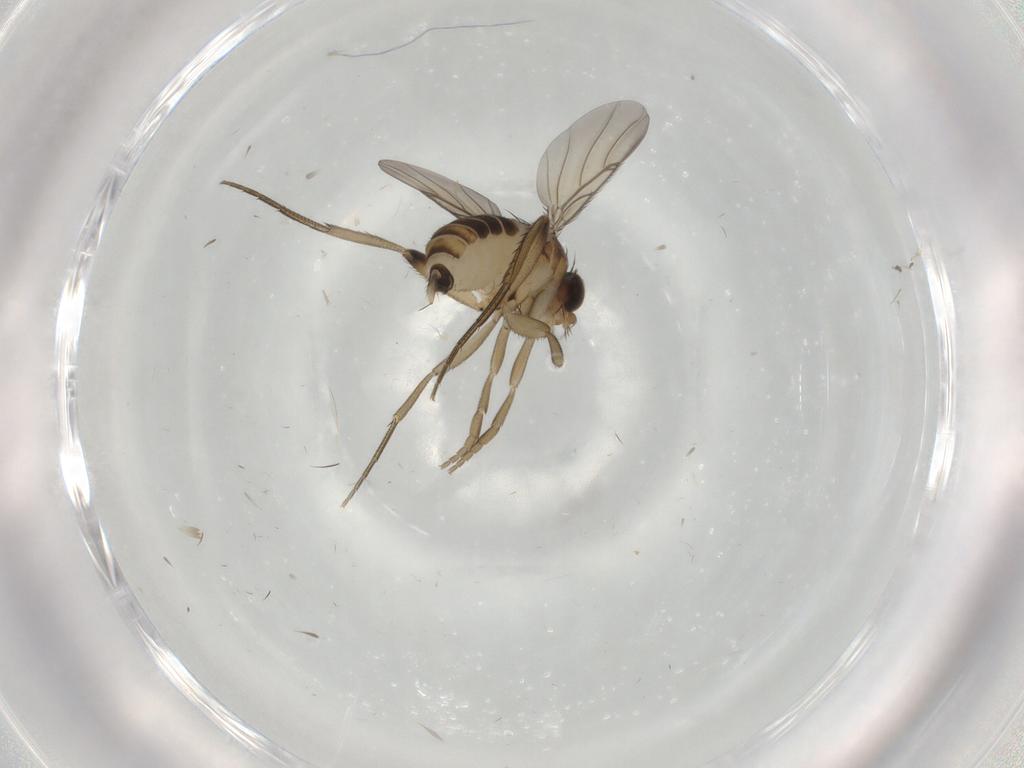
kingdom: Animalia
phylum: Arthropoda
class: Insecta
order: Diptera
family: Phoridae
